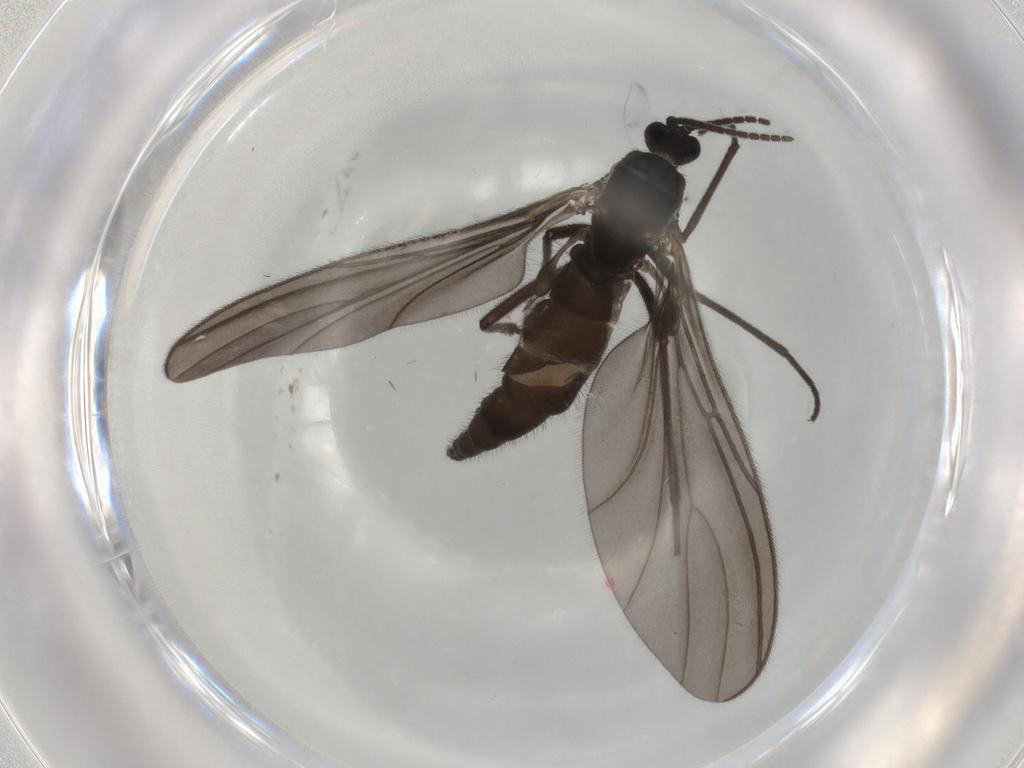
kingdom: Animalia
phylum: Arthropoda
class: Insecta
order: Diptera
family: Sciaridae
